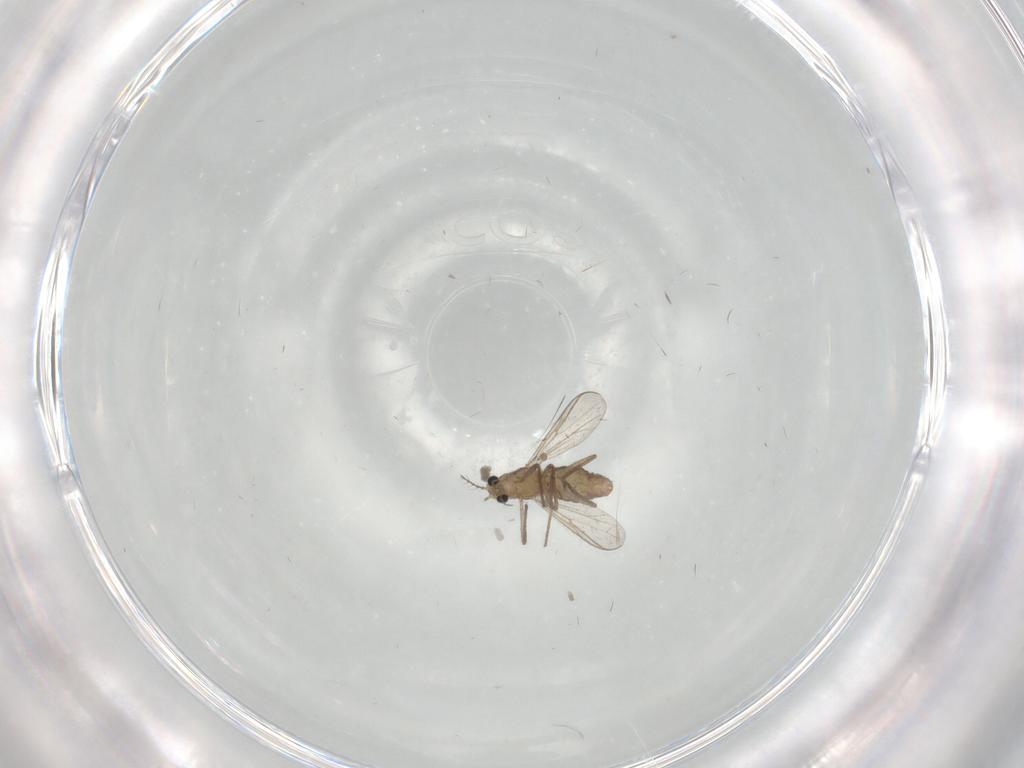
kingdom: Animalia
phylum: Arthropoda
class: Insecta
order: Diptera
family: Chironomidae
